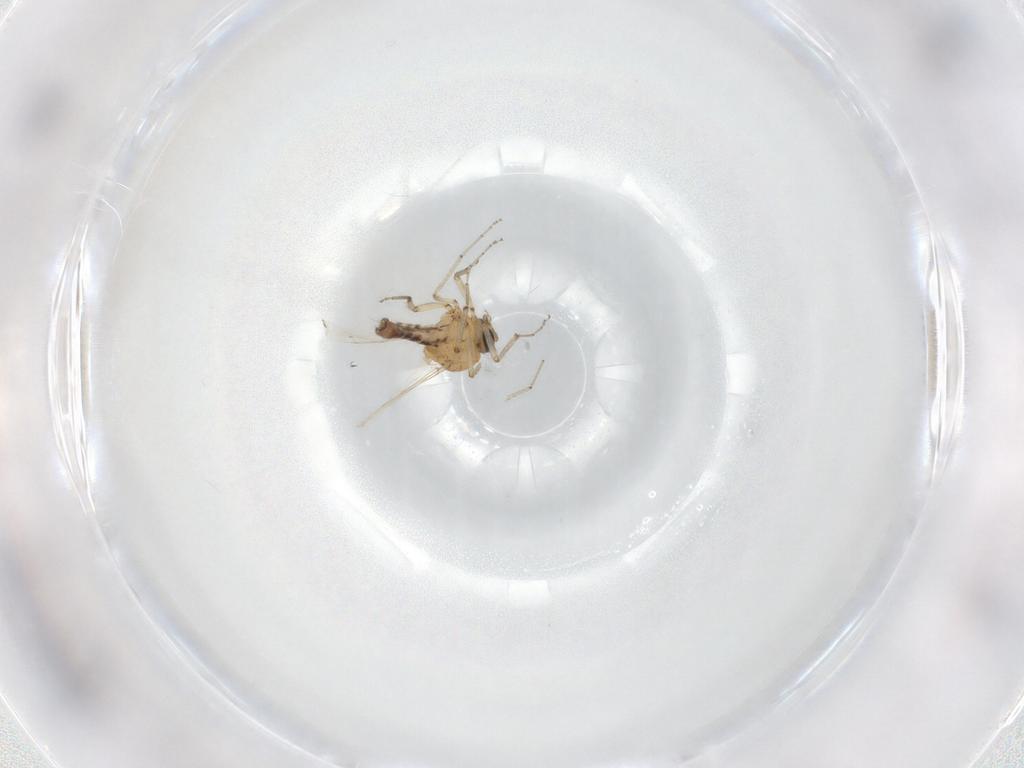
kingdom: Animalia
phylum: Arthropoda
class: Insecta
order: Diptera
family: Ceratopogonidae
